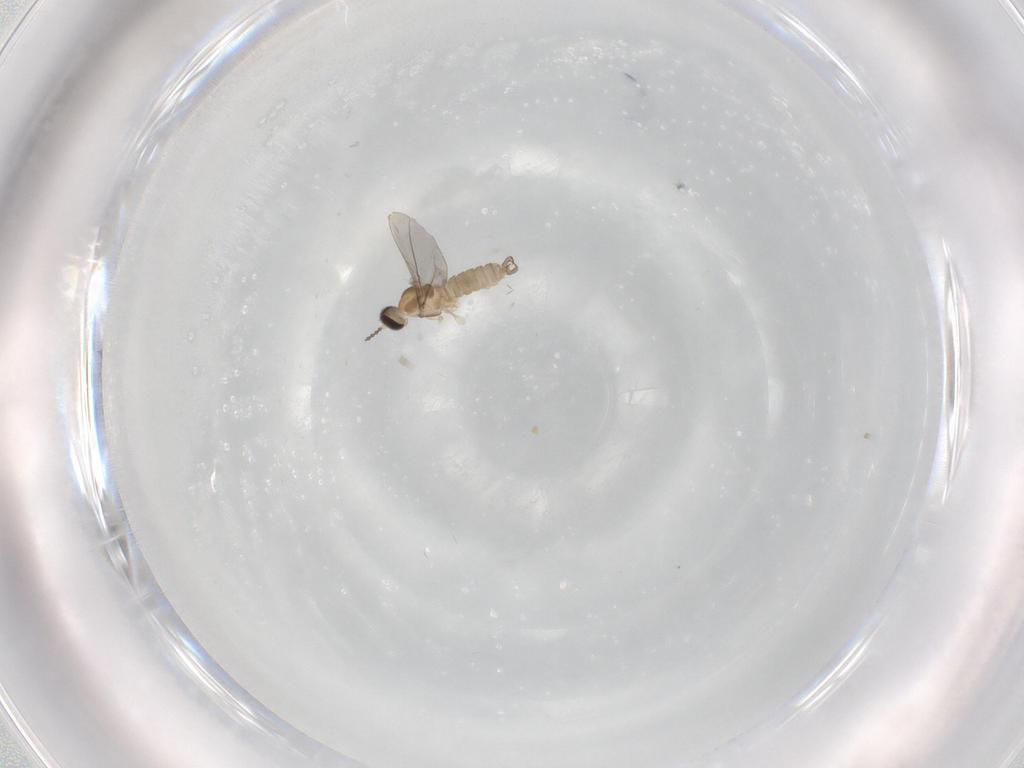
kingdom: Animalia
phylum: Arthropoda
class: Insecta
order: Diptera
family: Cecidomyiidae
